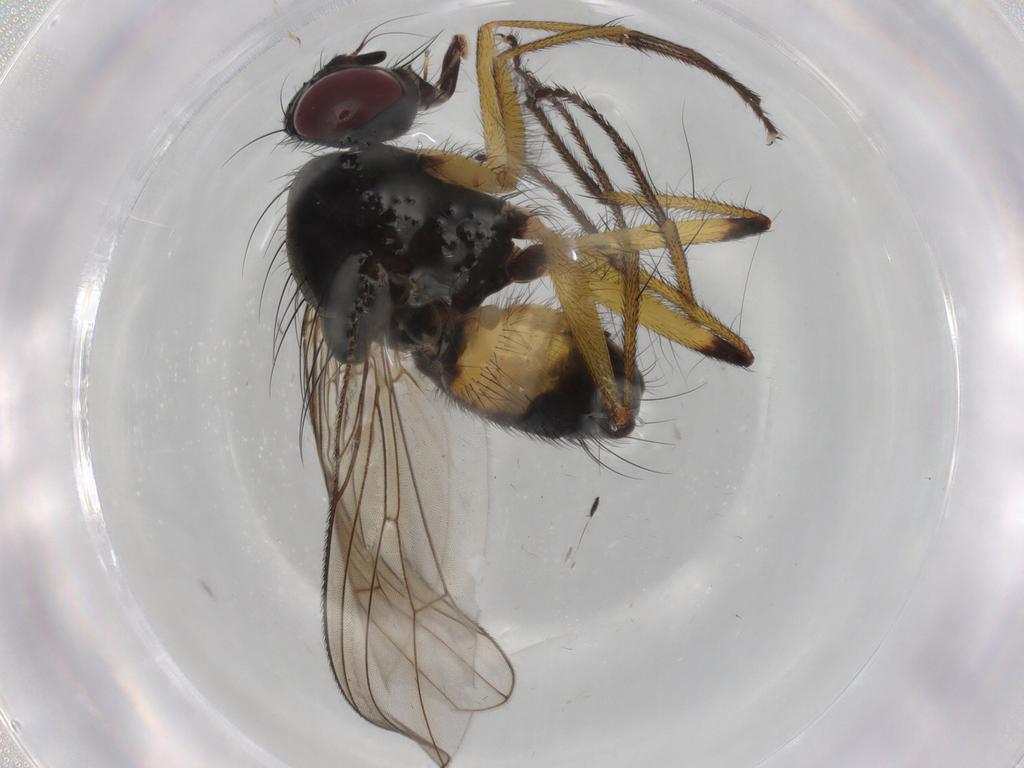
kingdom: Animalia
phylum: Arthropoda
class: Insecta
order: Diptera
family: Muscidae
